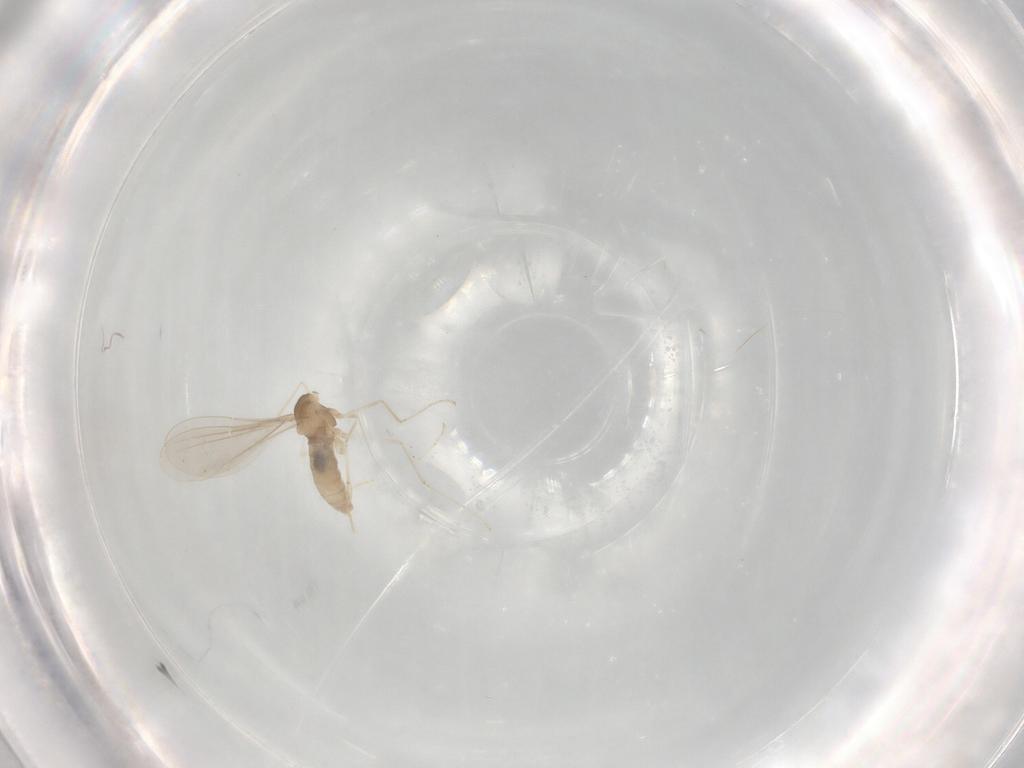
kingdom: Animalia
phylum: Arthropoda
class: Insecta
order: Diptera
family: Cecidomyiidae
